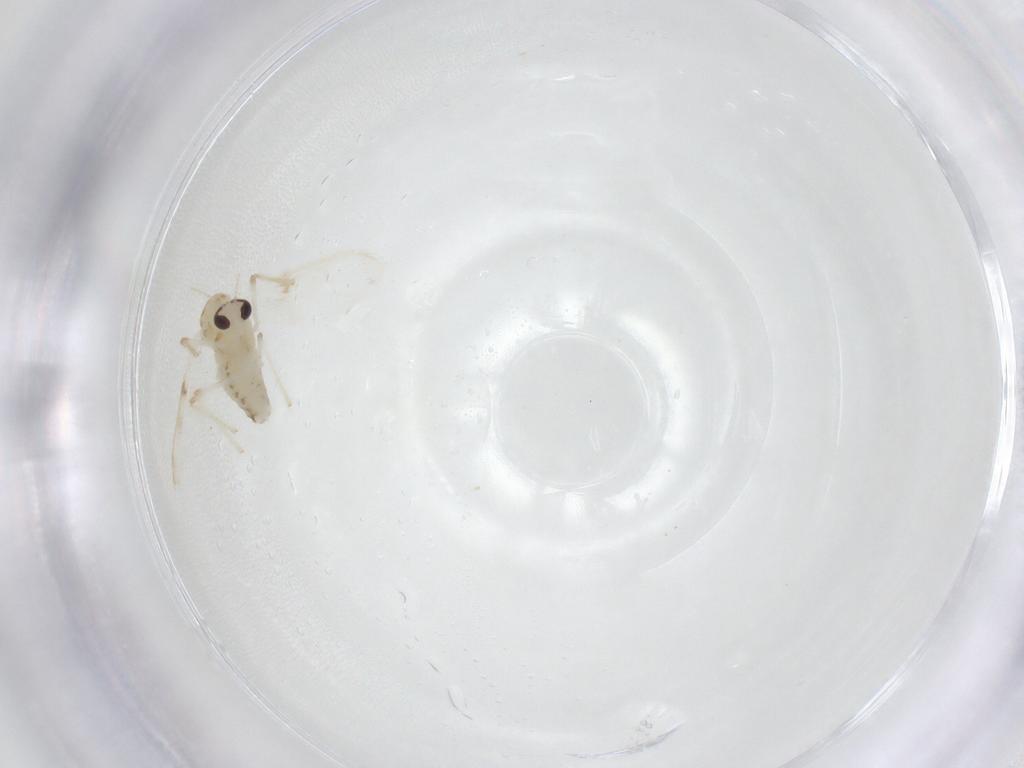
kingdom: Animalia
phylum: Arthropoda
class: Insecta
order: Diptera
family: Chironomidae
